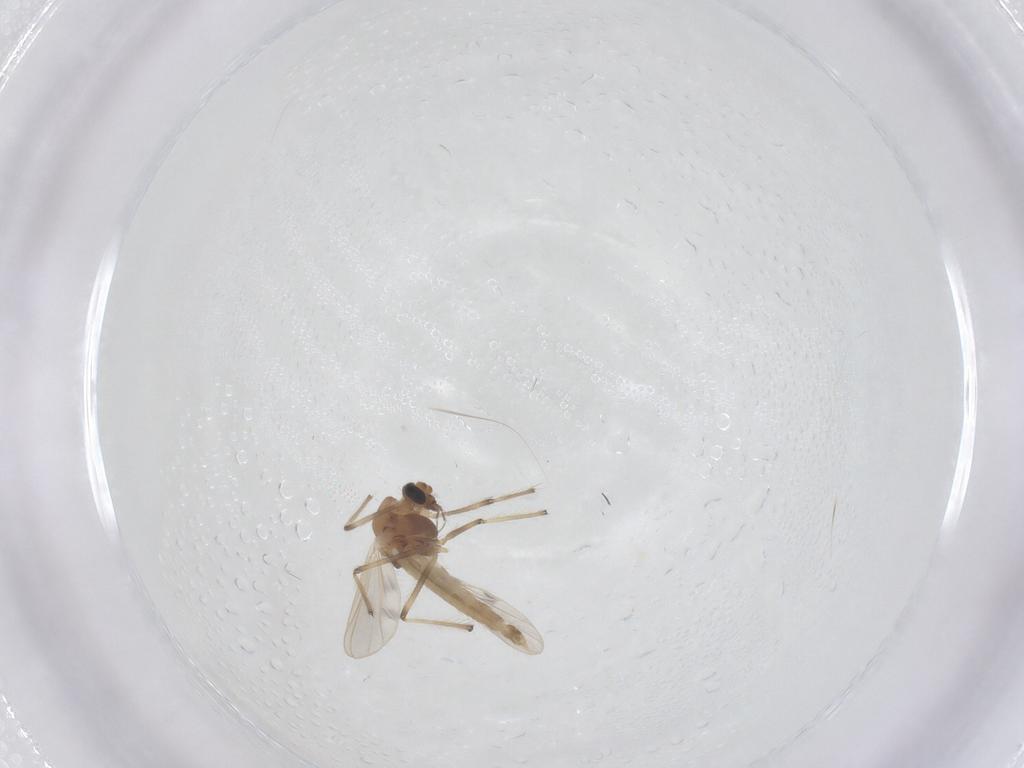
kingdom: Animalia
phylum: Arthropoda
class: Insecta
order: Diptera
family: Chironomidae
